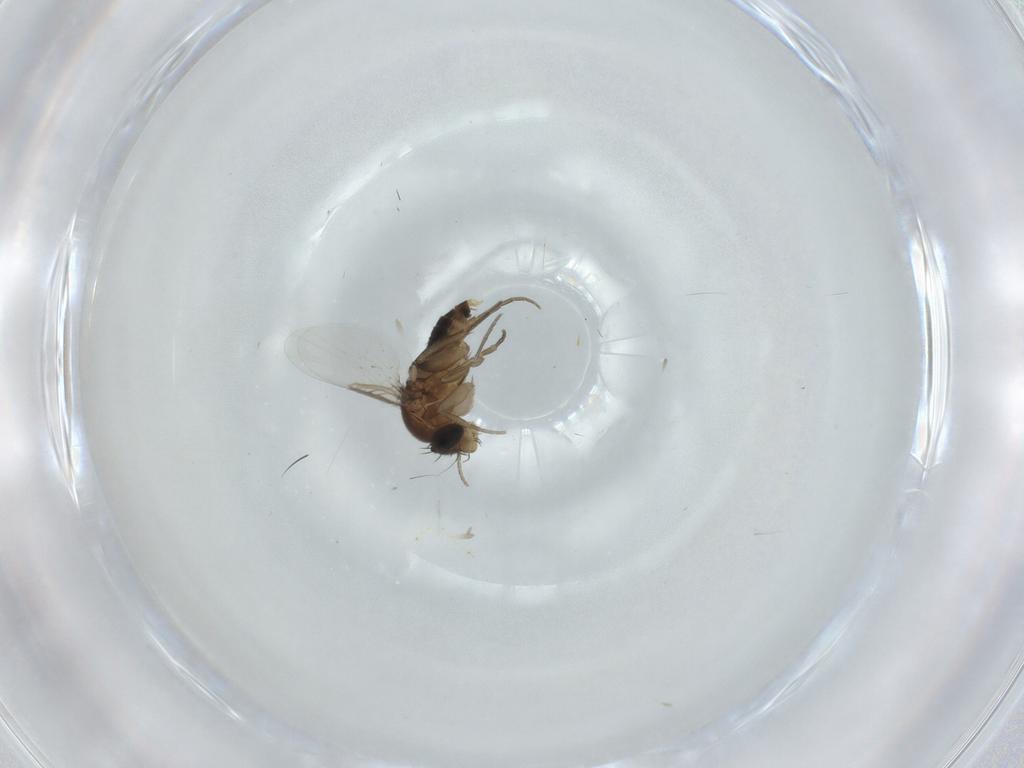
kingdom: Animalia
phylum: Arthropoda
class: Insecta
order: Diptera
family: Phoridae
